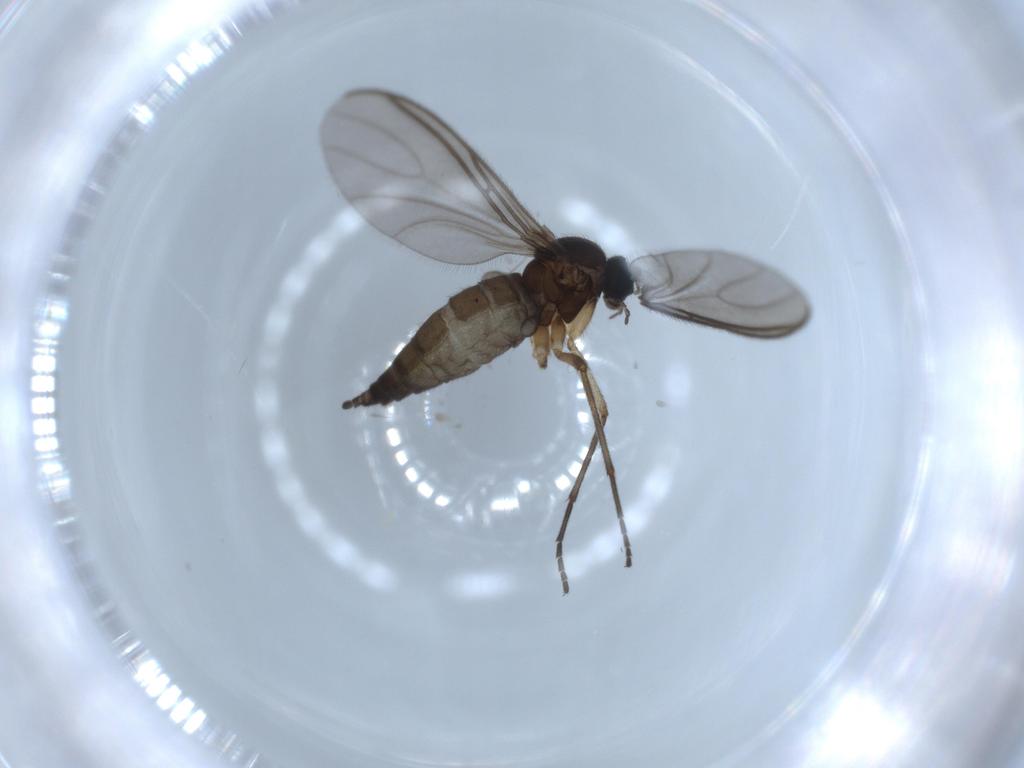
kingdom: Animalia
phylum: Arthropoda
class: Insecta
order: Diptera
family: Sciaridae
